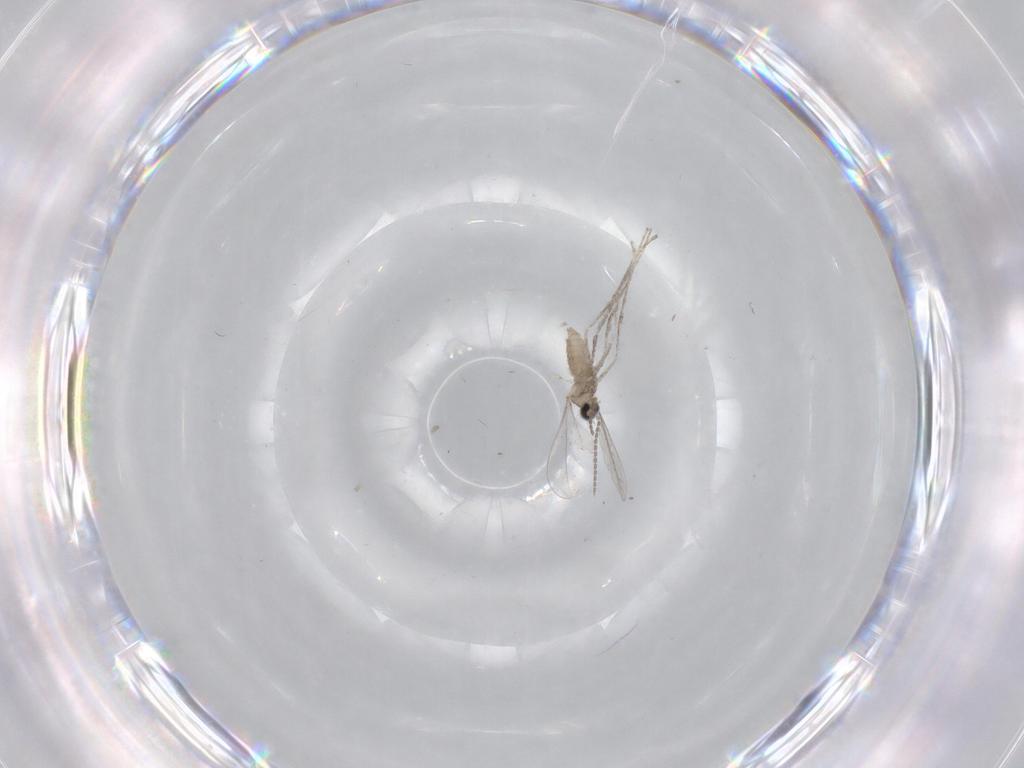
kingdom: Animalia
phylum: Arthropoda
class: Insecta
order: Diptera
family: Chironomidae
